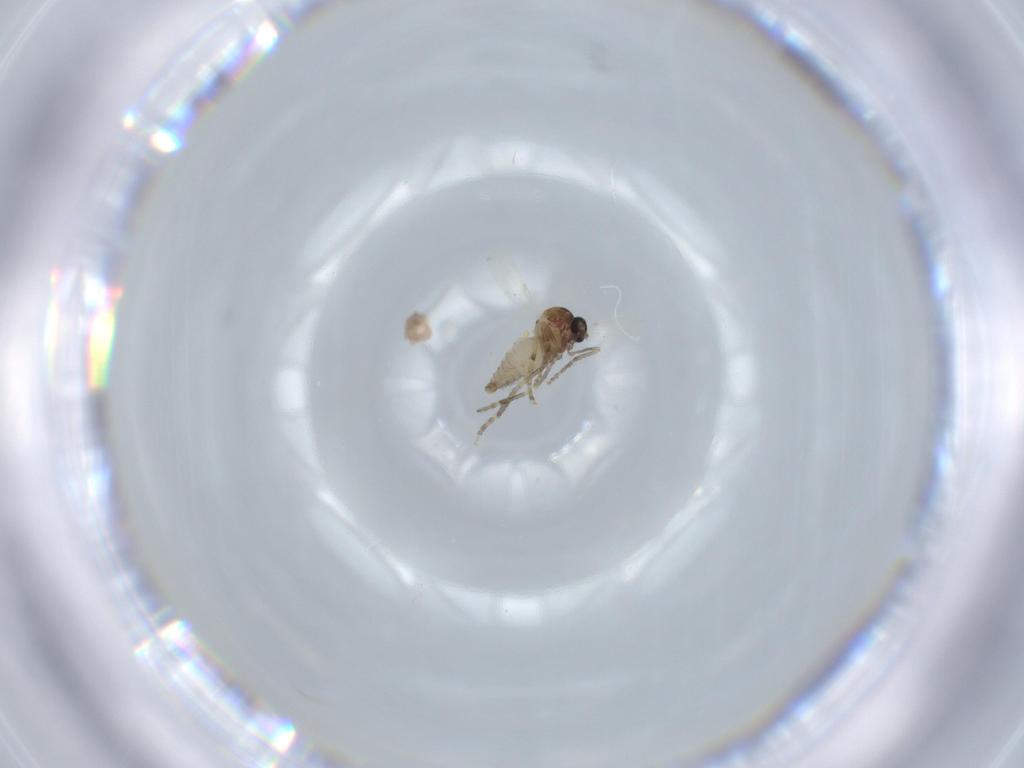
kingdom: Animalia
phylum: Arthropoda
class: Insecta
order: Diptera
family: Ceratopogonidae
